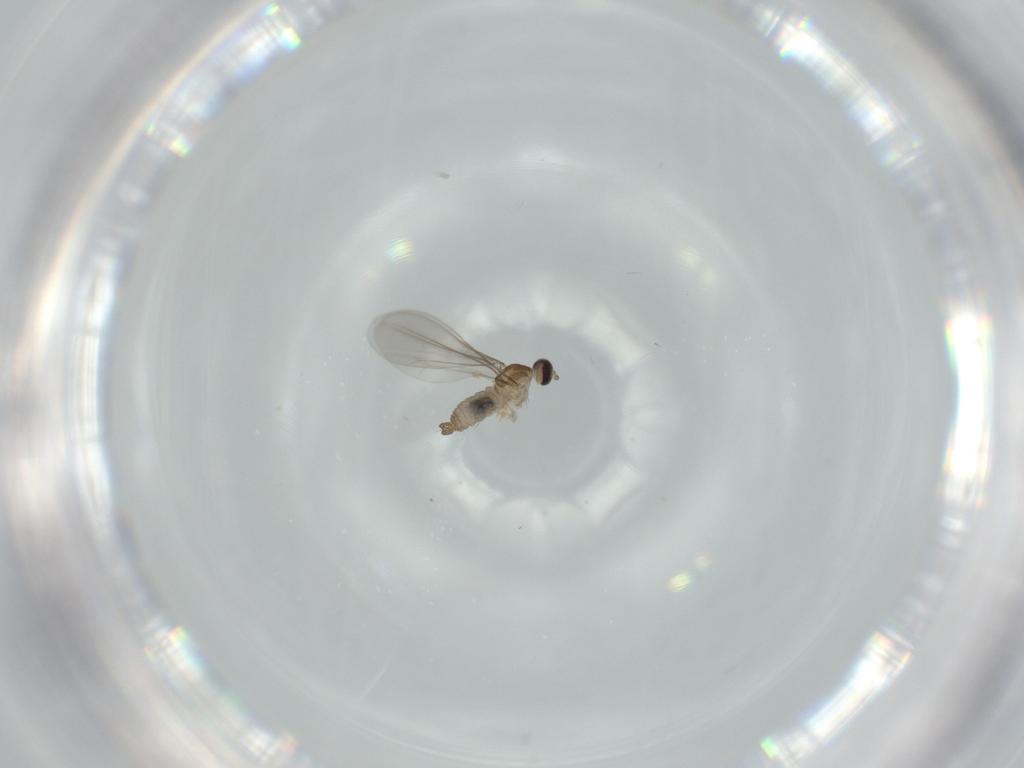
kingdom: Animalia
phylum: Arthropoda
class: Insecta
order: Diptera
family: Cecidomyiidae
